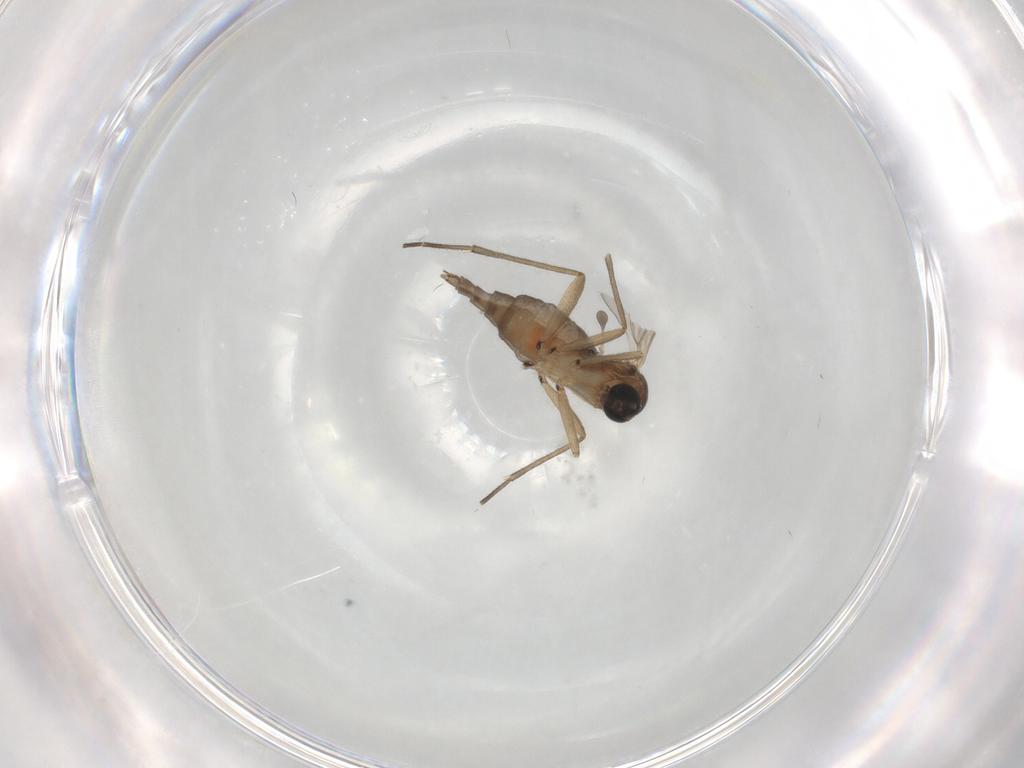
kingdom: Animalia
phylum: Arthropoda
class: Insecta
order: Diptera
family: Sciaridae
